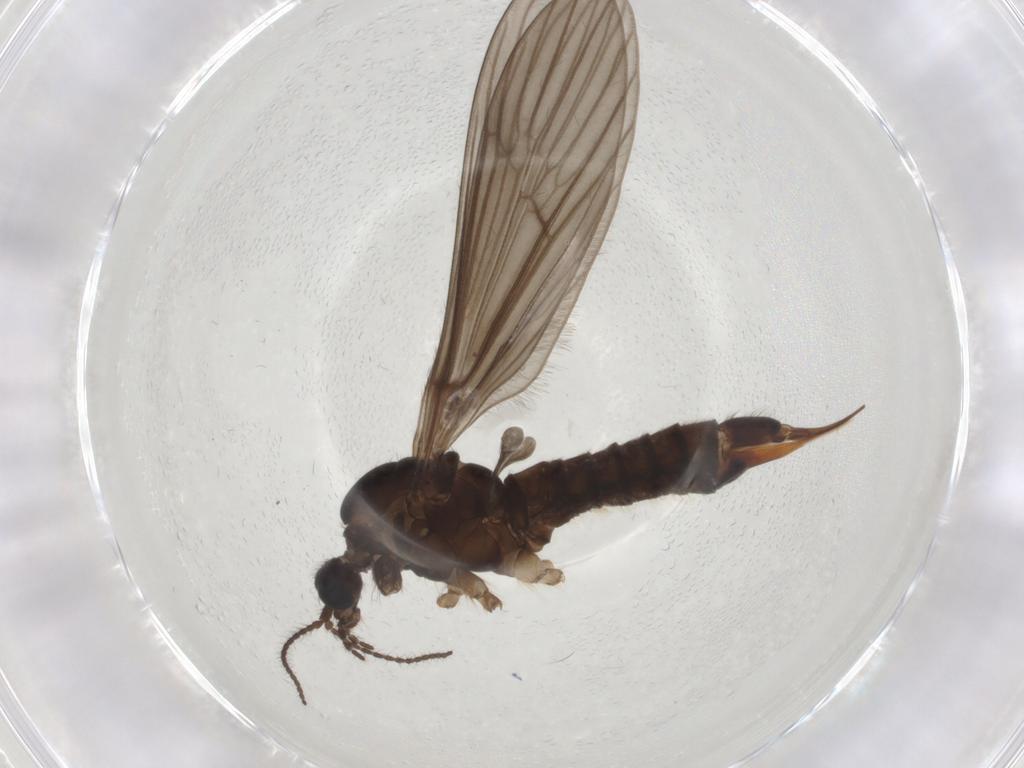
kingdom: Animalia
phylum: Arthropoda
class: Insecta
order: Diptera
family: Limoniidae
